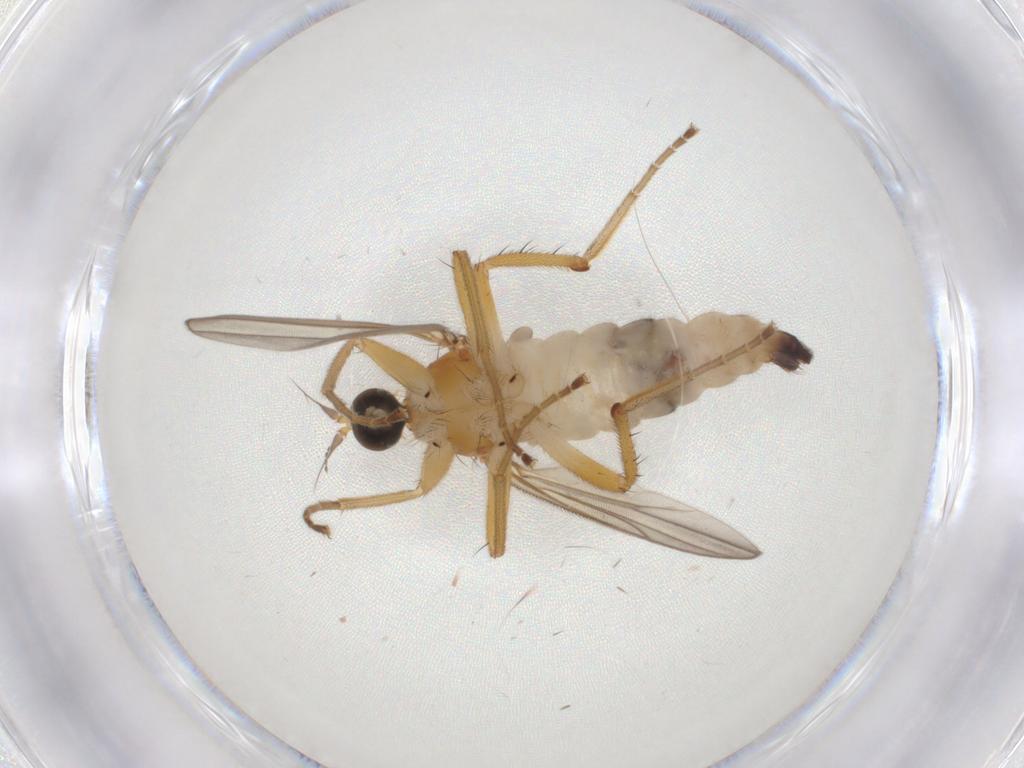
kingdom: Animalia
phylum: Arthropoda
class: Insecta
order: Diptera
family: Hybotidae
